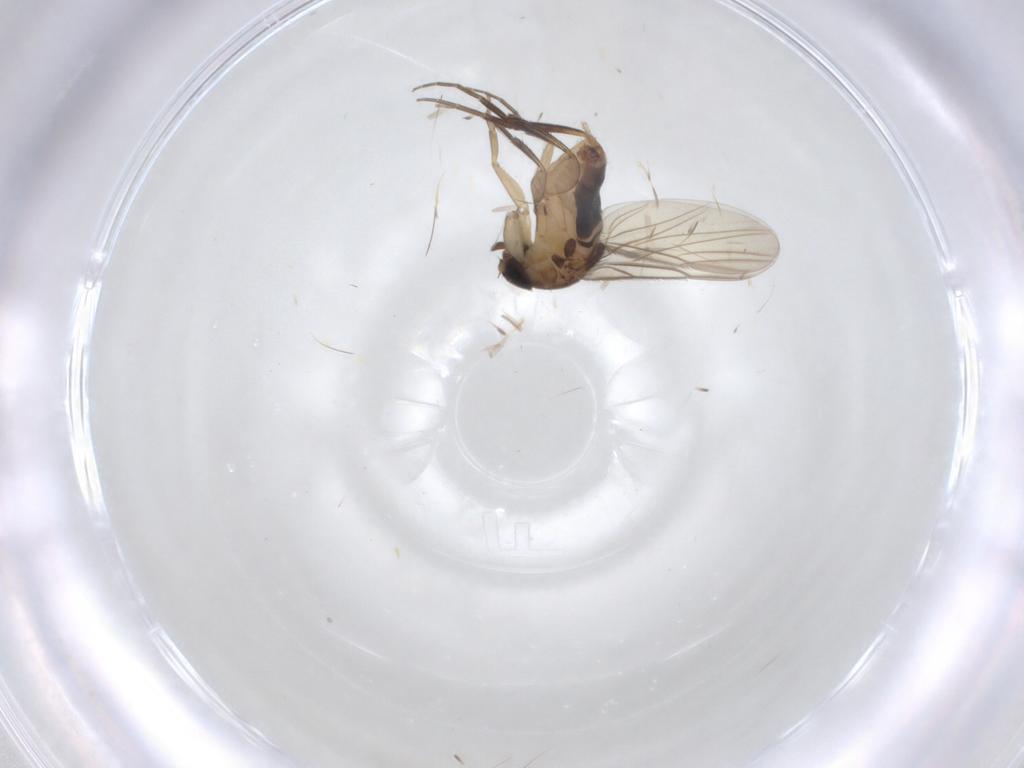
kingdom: Animalia
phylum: Arthropoda
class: Insecta
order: Diptera
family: Phoridae
